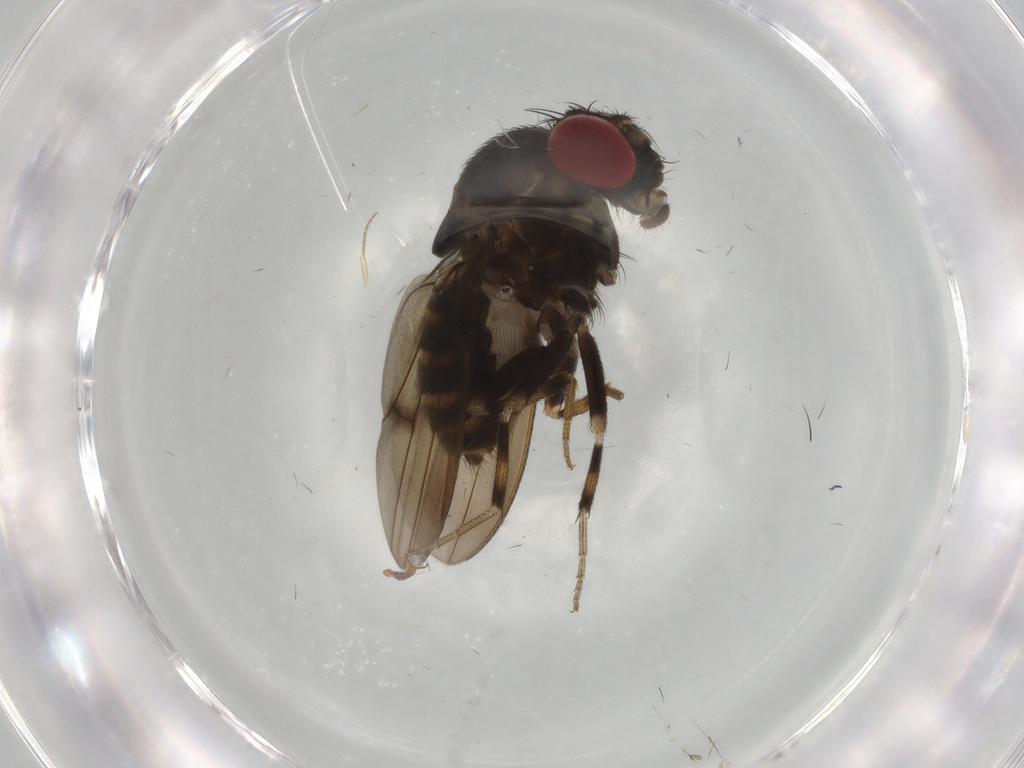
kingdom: Animalia
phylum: Arthropoda
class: Insecta
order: Diptera
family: Drosophilidae
